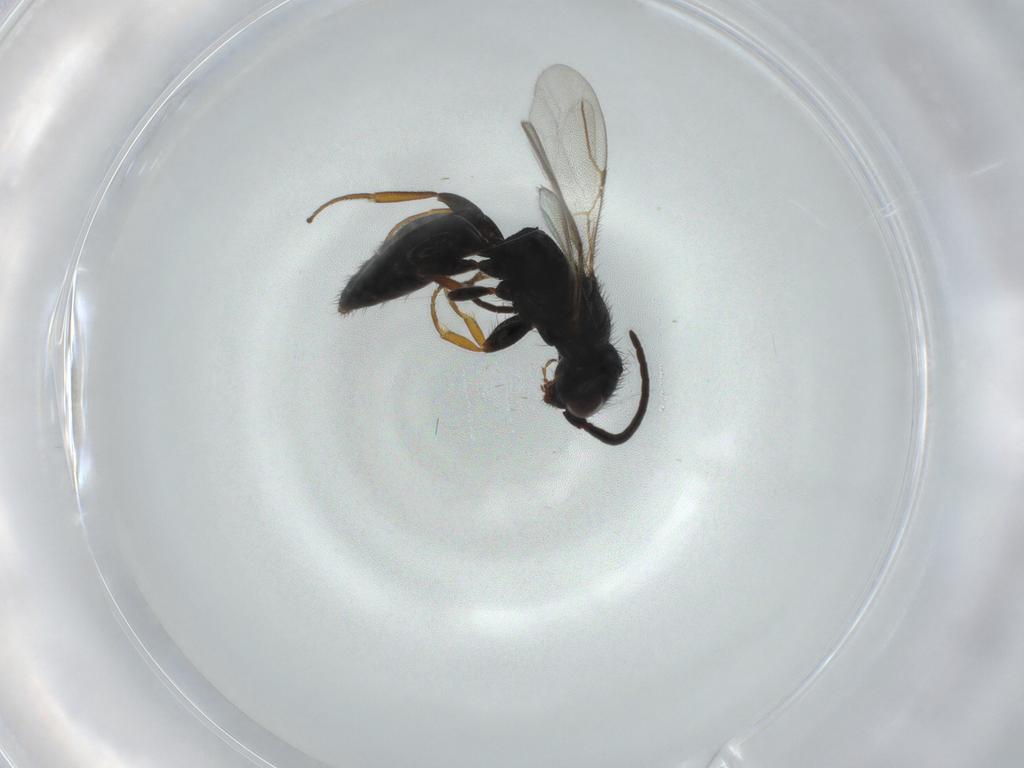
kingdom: Animalia
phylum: Arthropoda
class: Insecta
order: Hymenoptera
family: Bethylidae
